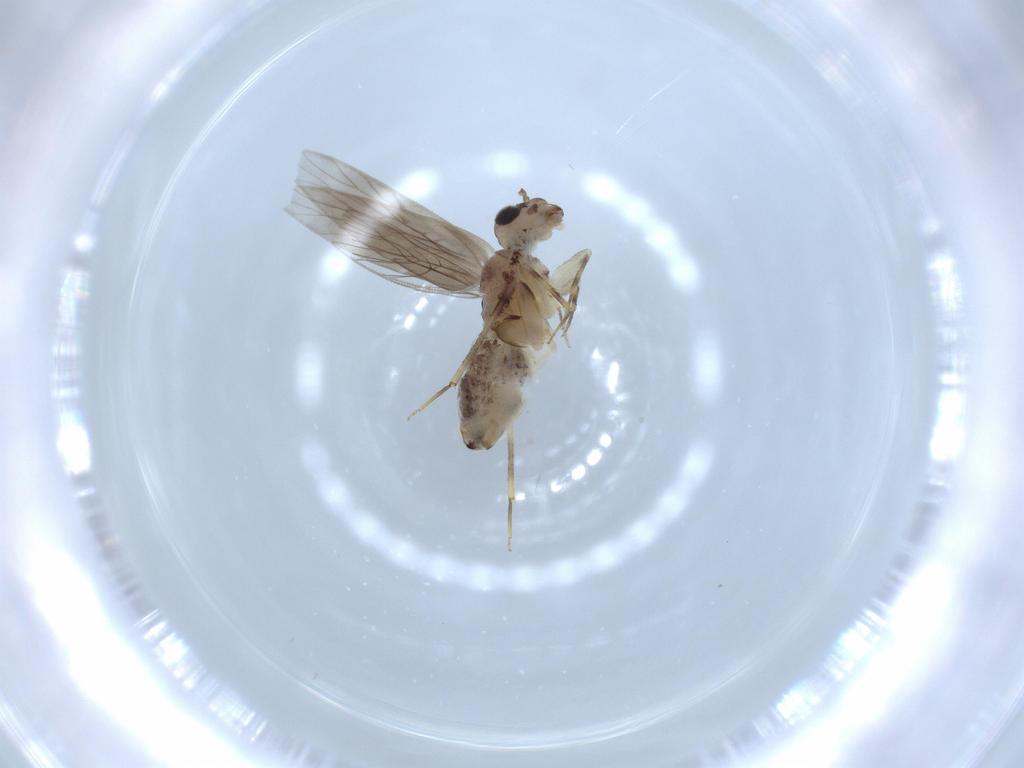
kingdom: Animalia
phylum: Arthropoda
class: Insecta
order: Psocodea
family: Lepidopsocidae
